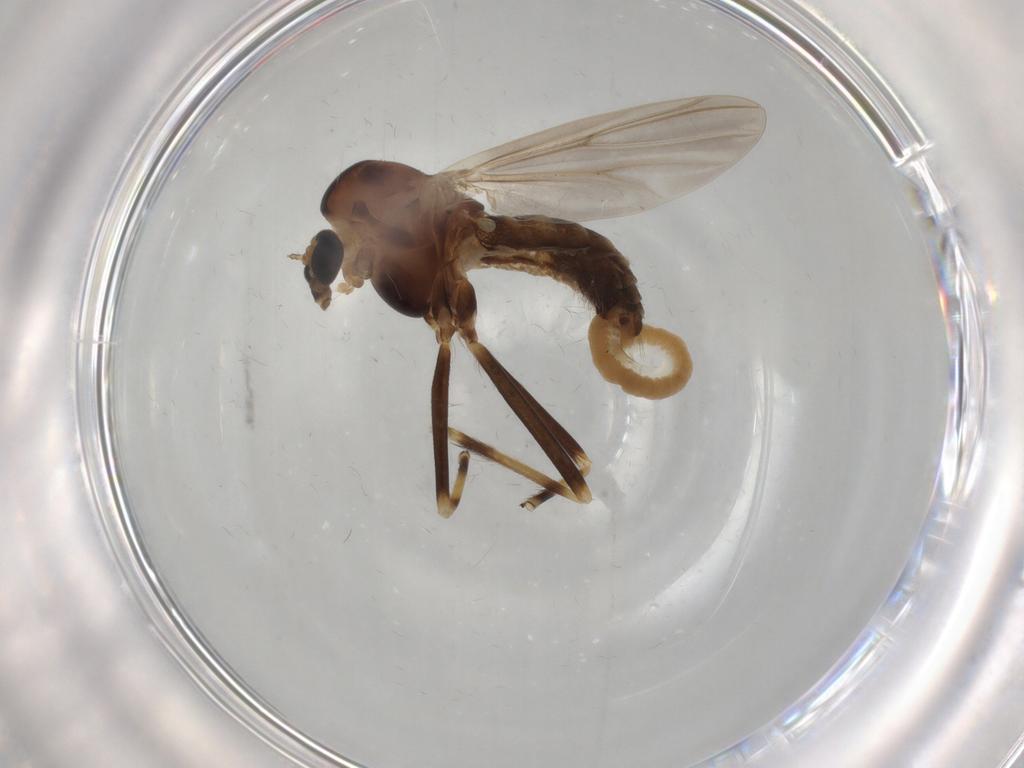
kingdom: Animalia
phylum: Arthropoda
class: Insecta
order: Diptera
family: Chironomidae
